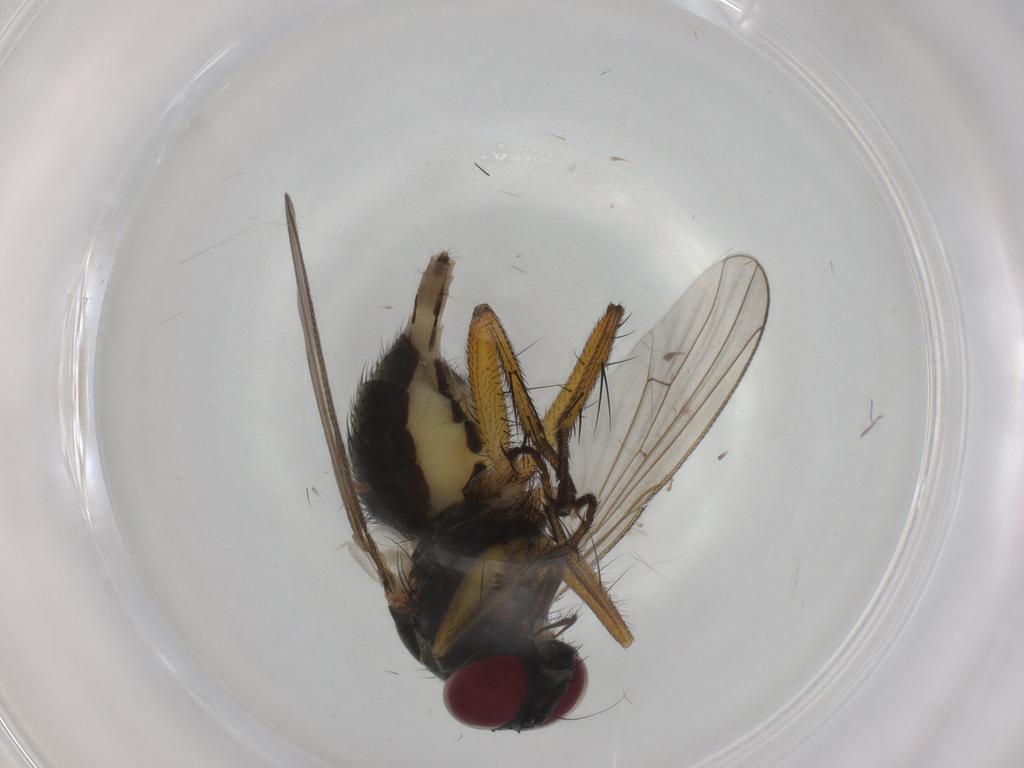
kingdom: Animalia
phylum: Arthropoda
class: Insecta
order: Diptera
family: Muscidae
